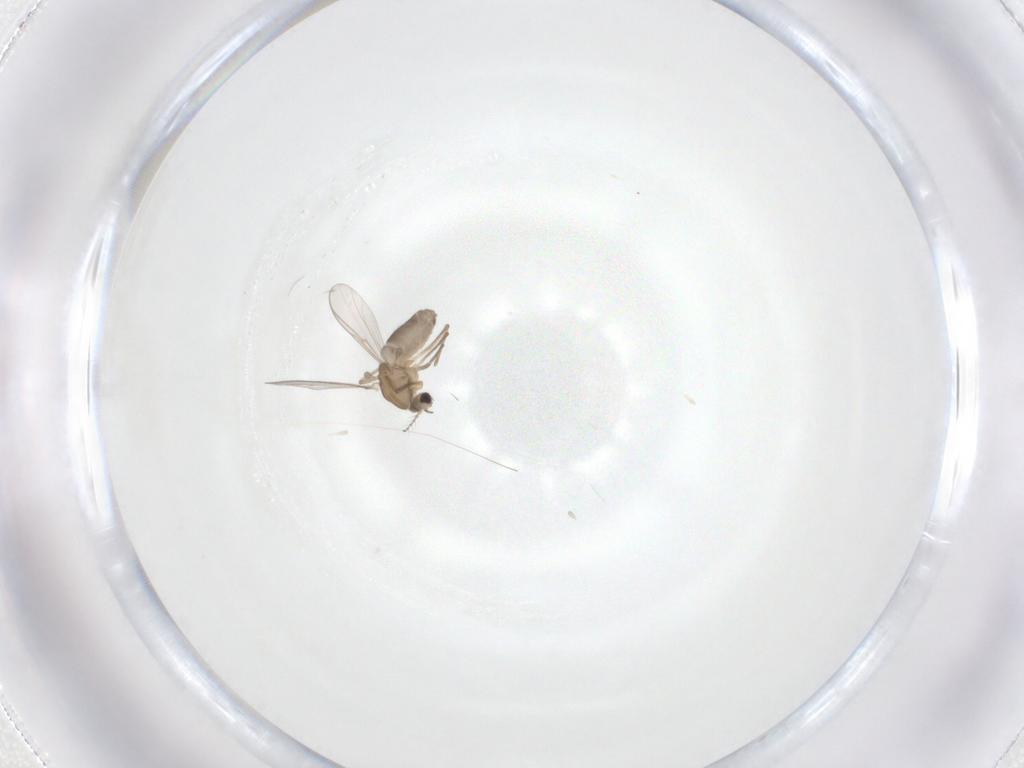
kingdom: Animalia
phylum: Arthropoda
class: Insecta
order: Diptera
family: Chironomidae
